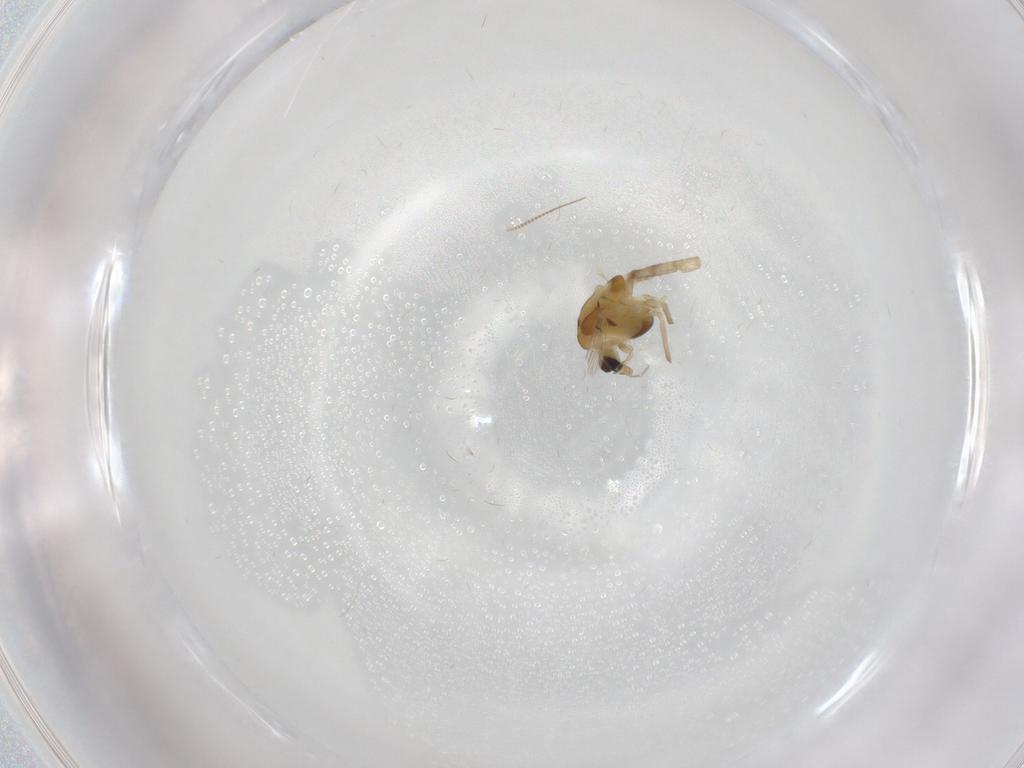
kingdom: Animalia
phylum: Arthropoda
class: Insecta
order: Diptera
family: Chironomidae
